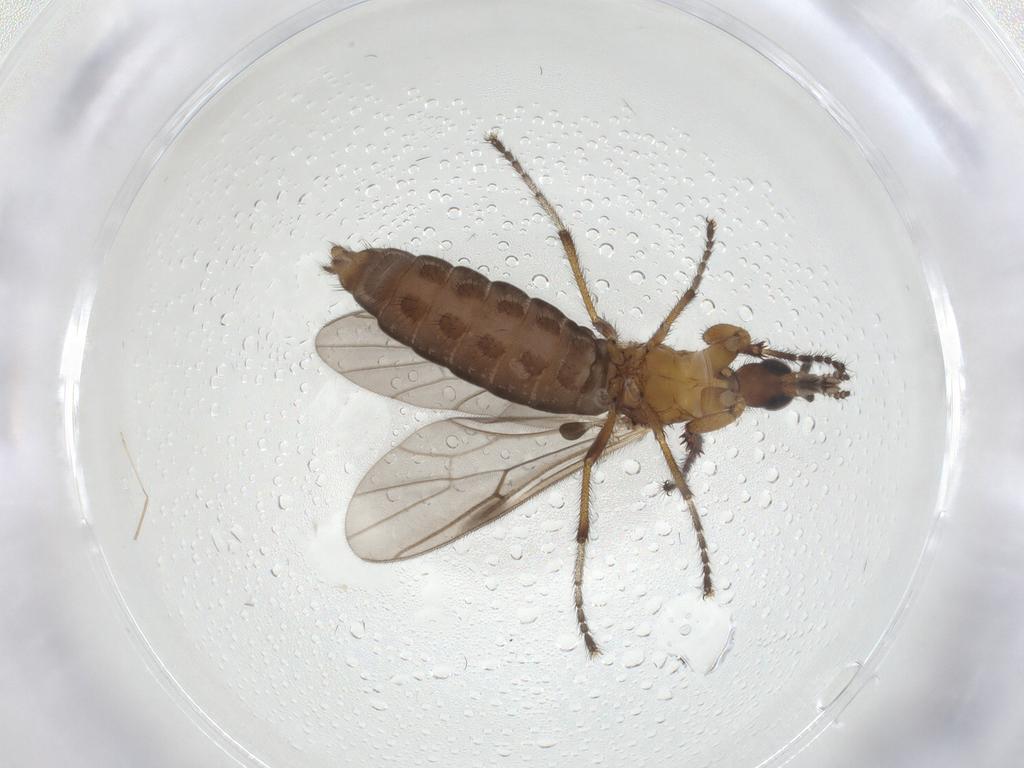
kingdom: Animalia
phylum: Arthropoda
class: Insecta
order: Diptera
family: Bibionidae
